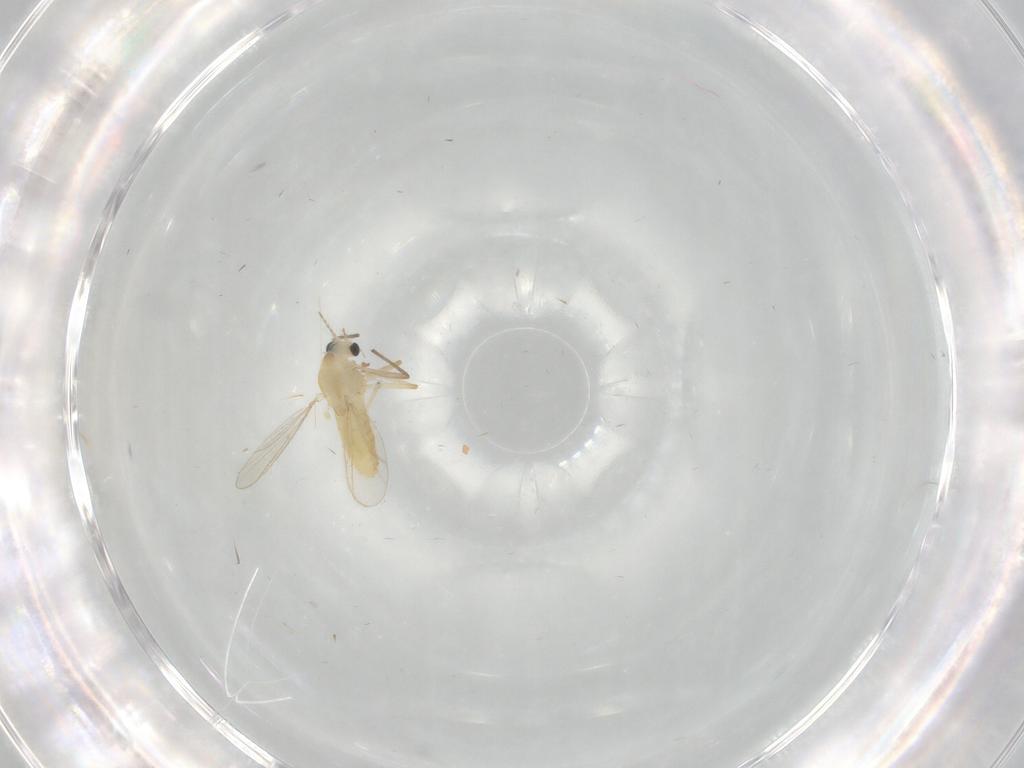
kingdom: Animalia
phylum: Arthropoda
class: Insecta
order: Diptera
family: Chironomidae
